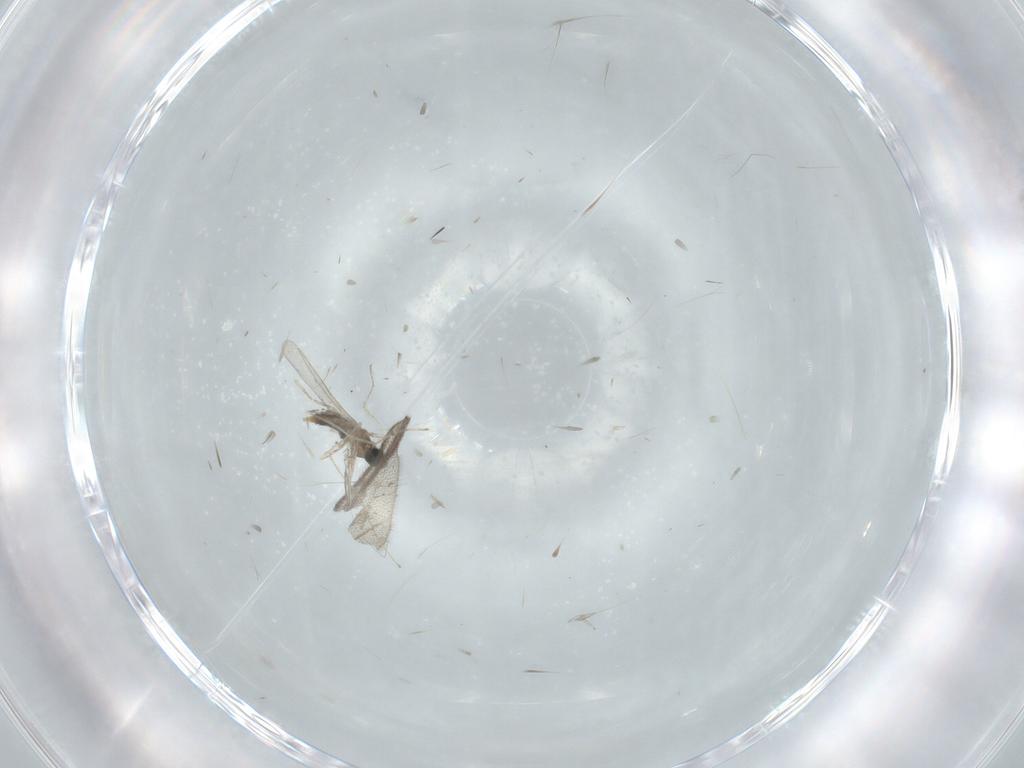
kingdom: Animalia
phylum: Arthropoda
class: Insecta
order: Diptera
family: Cecidomyiidae
